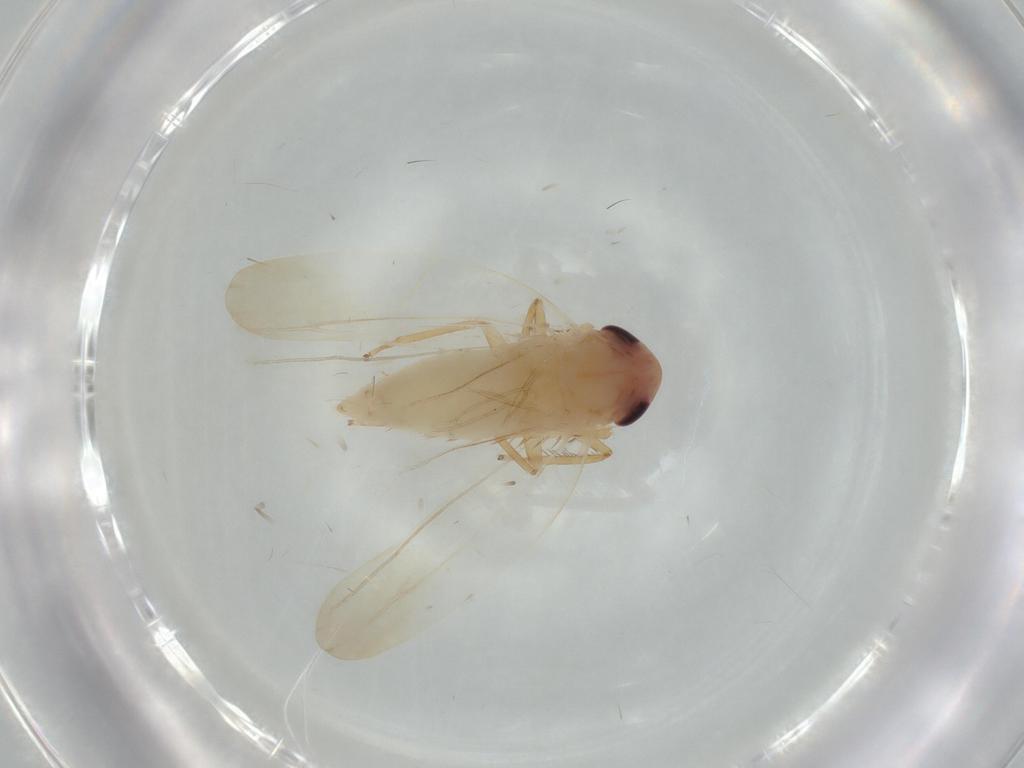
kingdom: Animalia
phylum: Arthropoda
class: Insecta
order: Hemiptera
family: Cicadellidae
